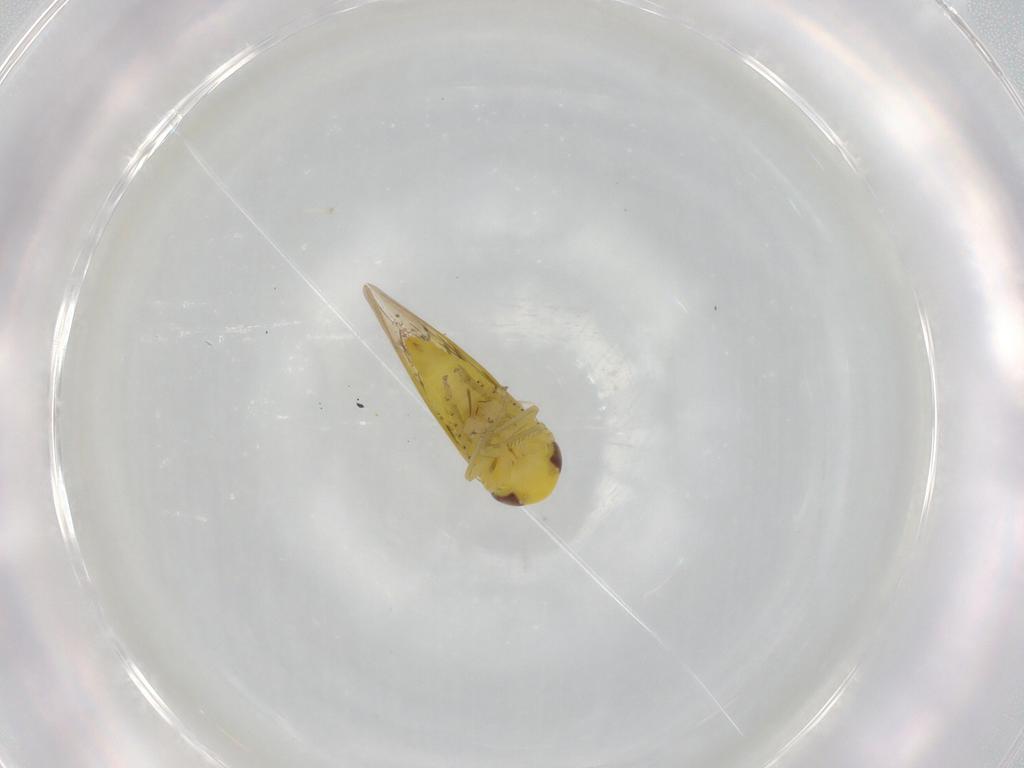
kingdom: Animalia
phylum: Arthropoda
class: Insecta
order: Hemiptera
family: Cicadellidae
